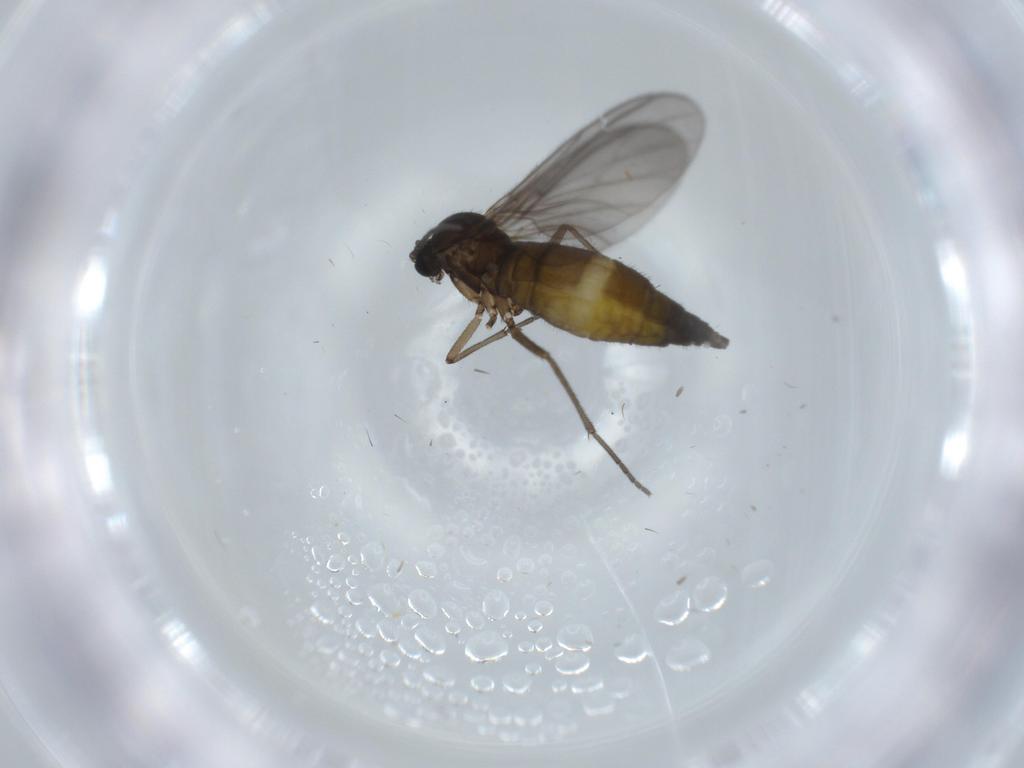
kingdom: Animalia
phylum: Arthropoda
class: Insecta
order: Diptera
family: Sciaridae
